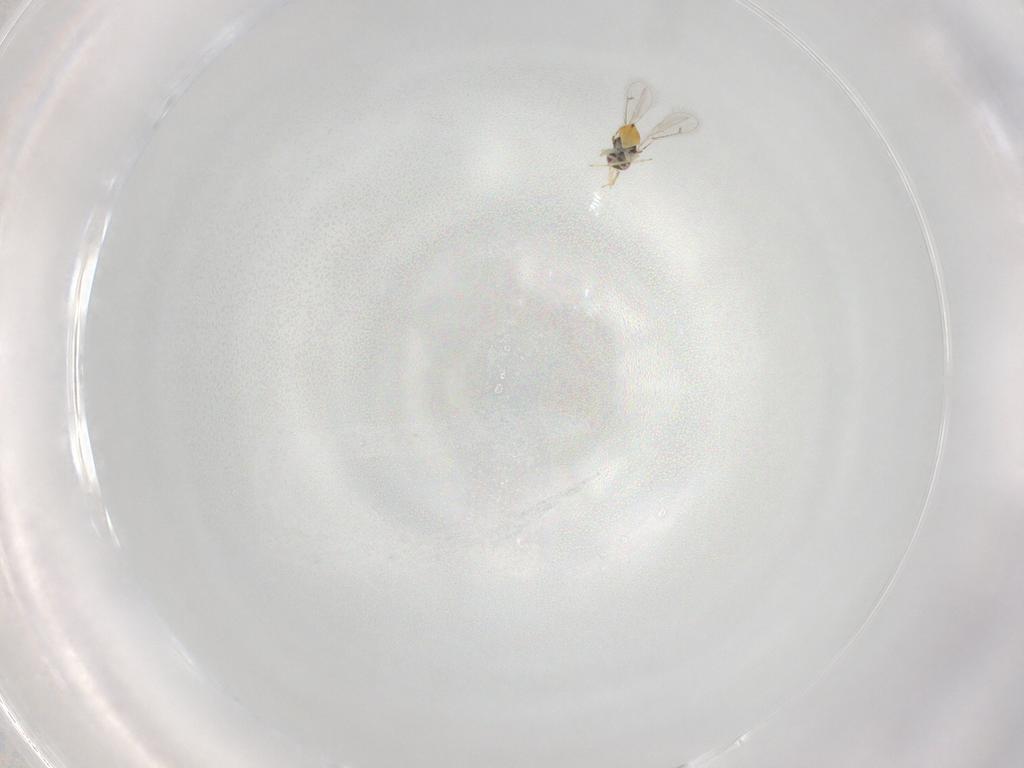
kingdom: Animalia
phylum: Arthropoda
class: Insecta
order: Hymenoptera
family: Eulophidae
